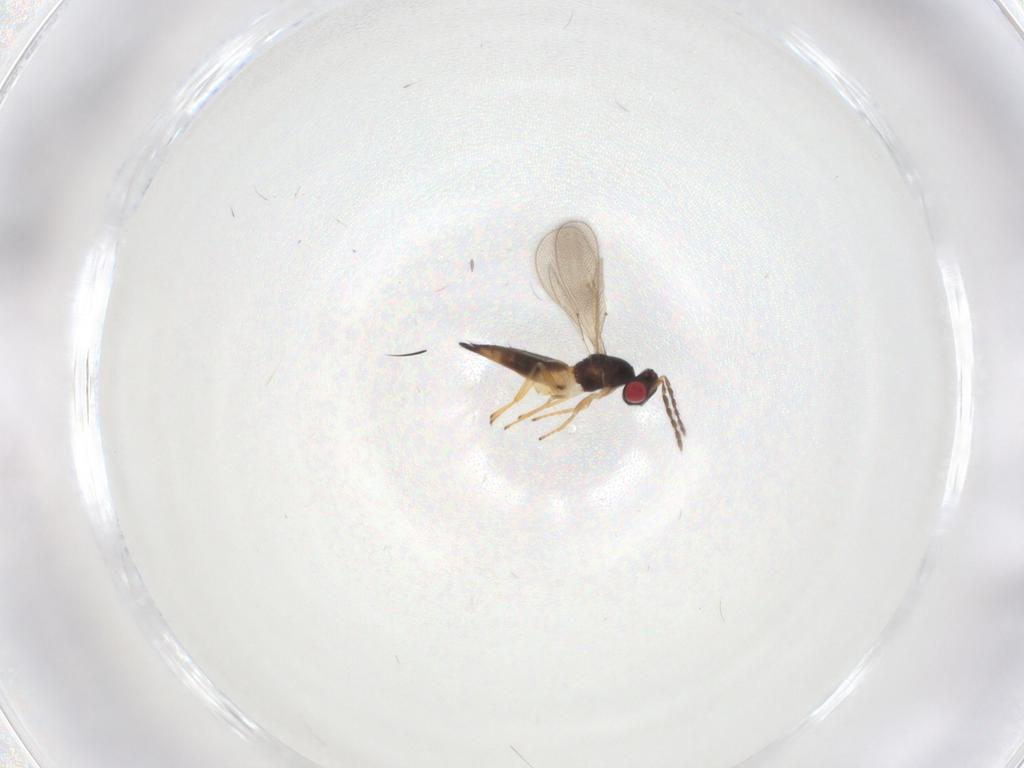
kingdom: Animalia
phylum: Arthropoda
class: Insecta
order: Hymenoptera
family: Eulophidae
